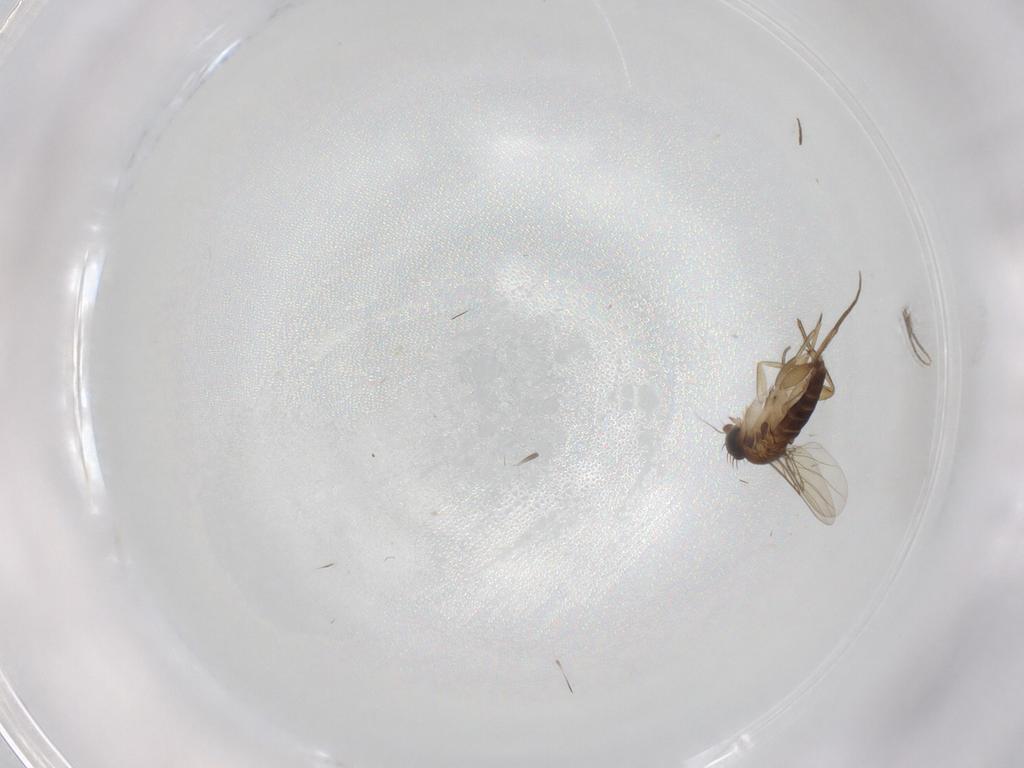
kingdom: Animalia
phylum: Arthropoda
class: Insecta
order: Diptera
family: Phoridae
